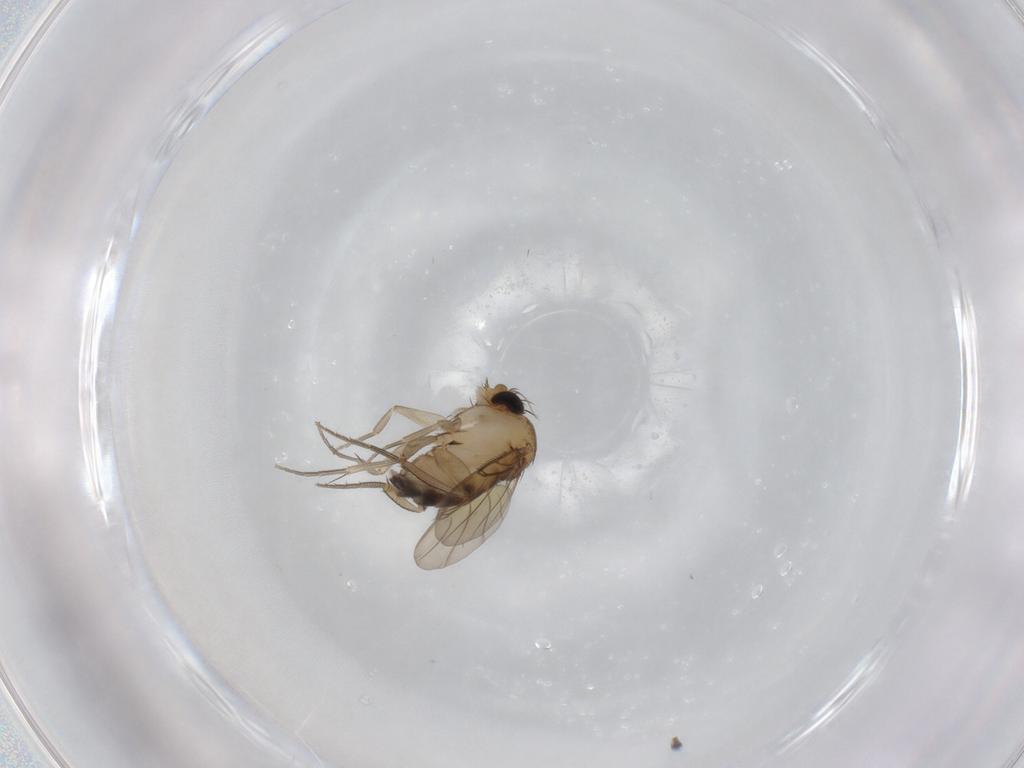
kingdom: Animalia
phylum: Arthropoda
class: Insecta
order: Diptera
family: Phoridae
